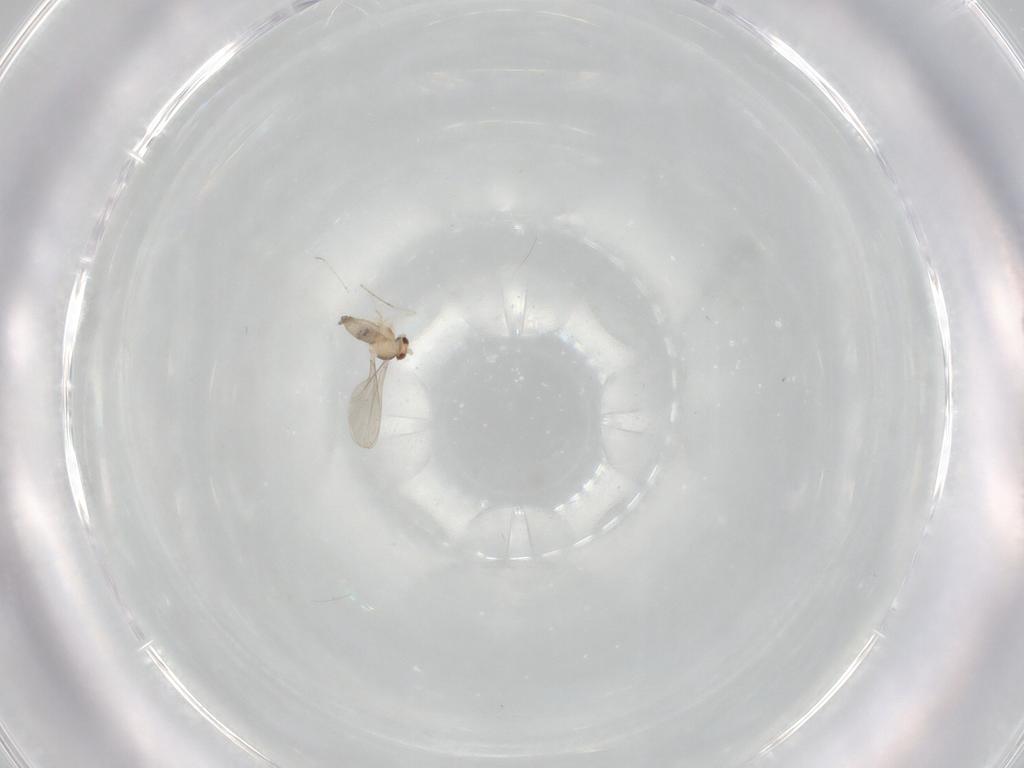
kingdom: Animalia
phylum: Arthropoda
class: Insecta
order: Diptera
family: Cecidomyiidae
